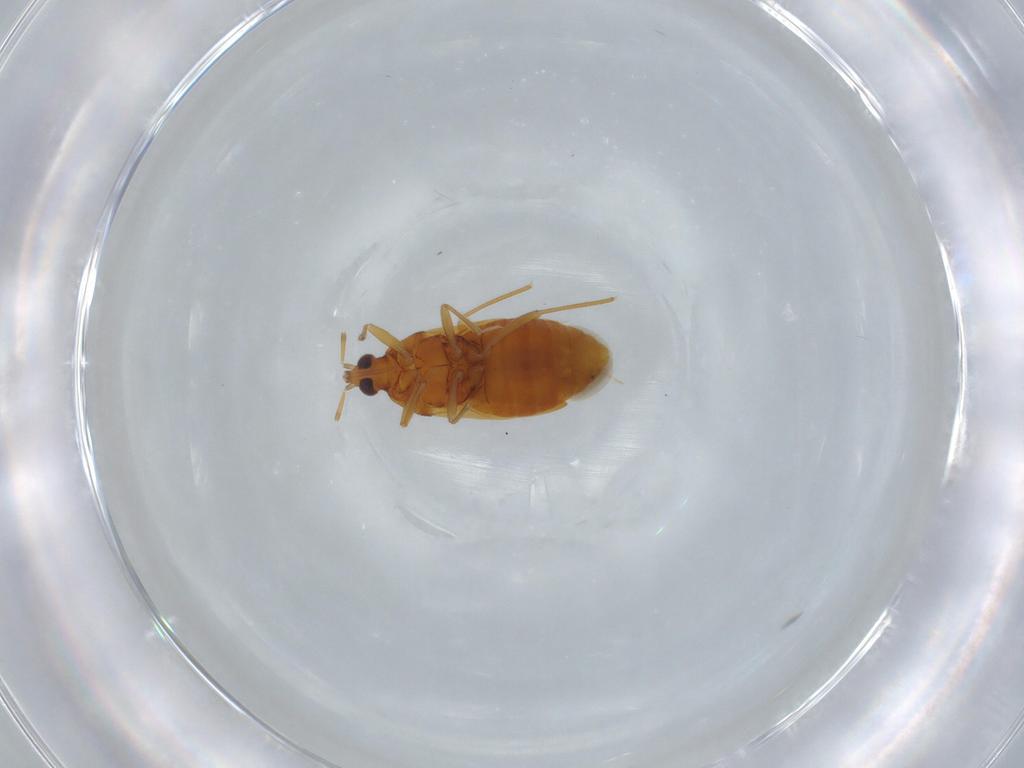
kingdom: Animalia
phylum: Arthropoda
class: Insecta
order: Hemiptera
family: Anthocoridae
